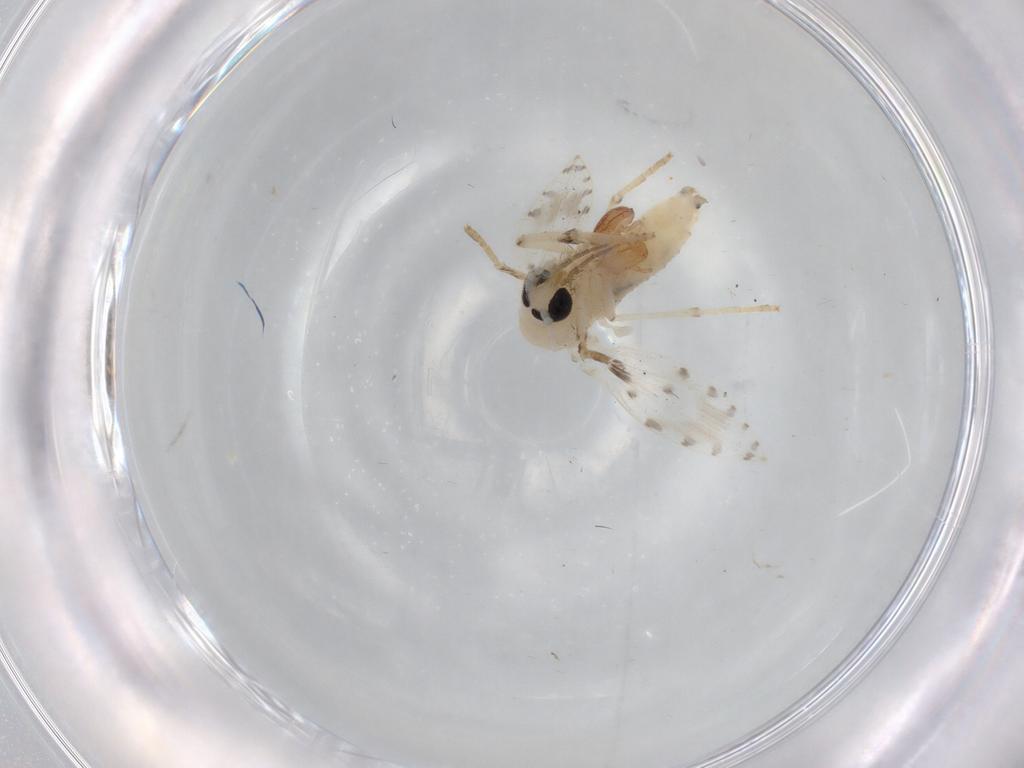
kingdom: Animalia
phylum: Arthropoda
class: Insecta
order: Diptera
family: Psychodidae
